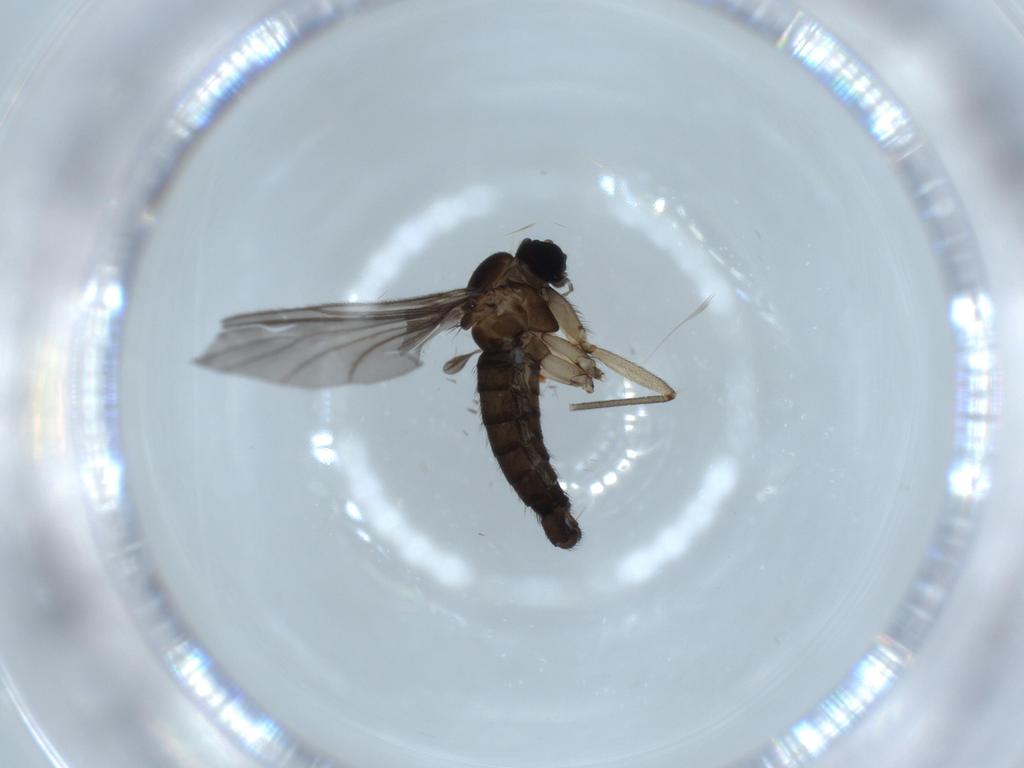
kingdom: Animalia
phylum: Arthropoda
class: Insecta
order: Diptera
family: Sciaridae
